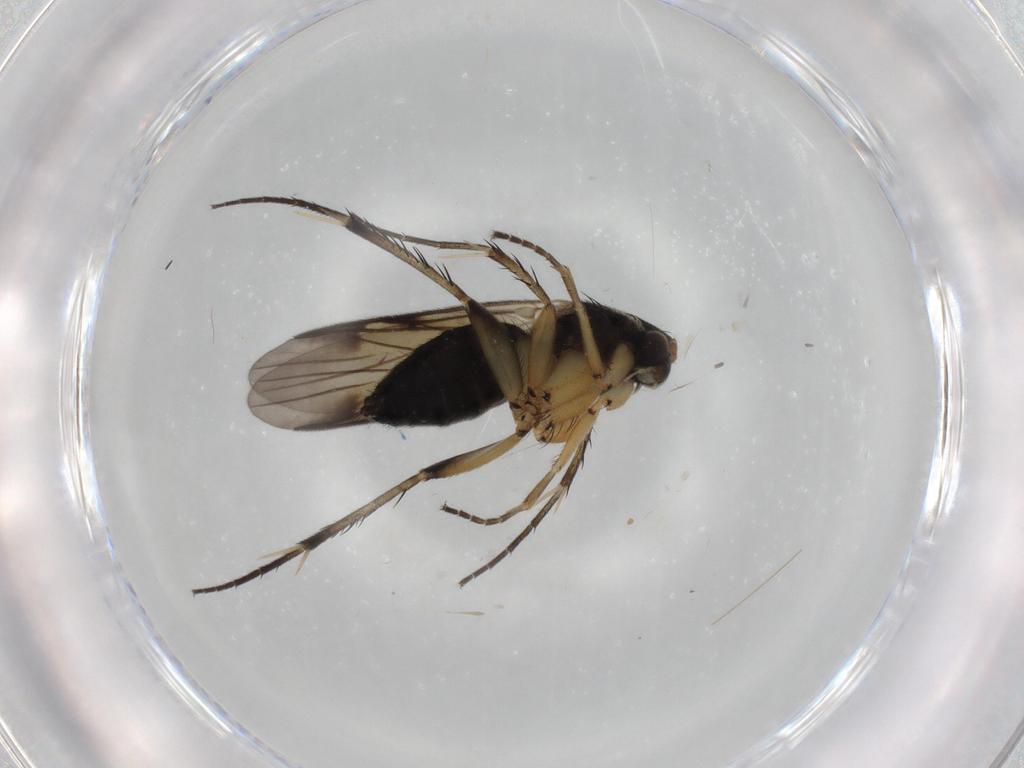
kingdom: Animalia
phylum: Arthropoda
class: Insecta
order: Diptera
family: Mycetophilidae
